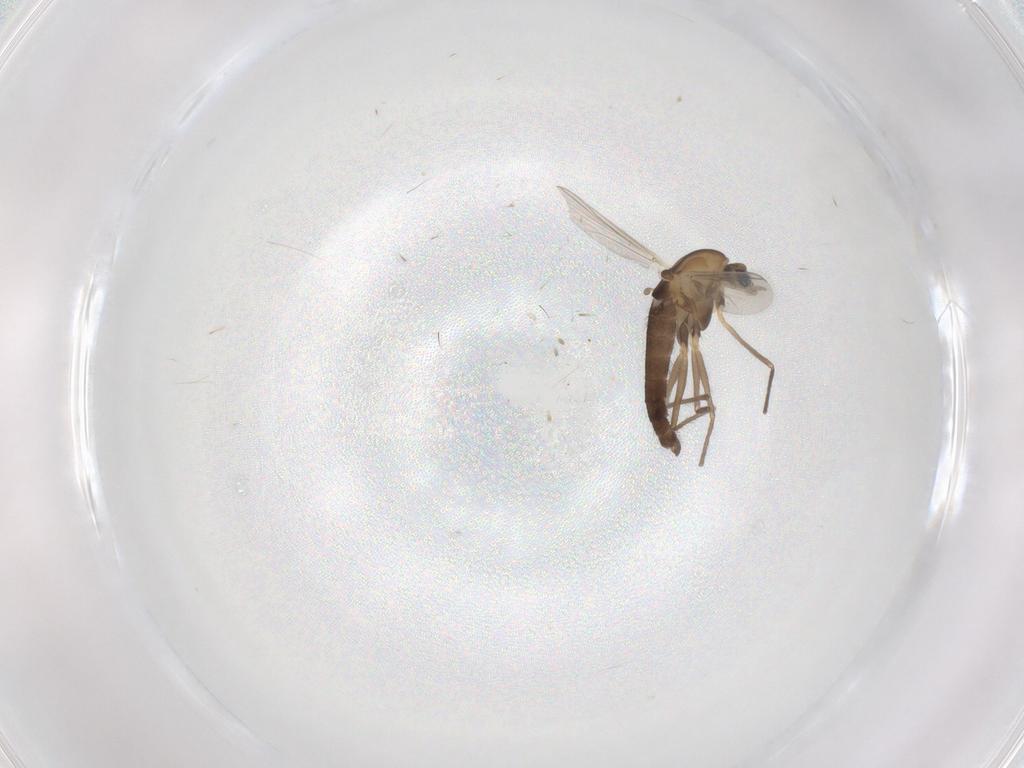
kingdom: Animalia
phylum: Arthropoda
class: Insecta
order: Diptera
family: Chironomidae
